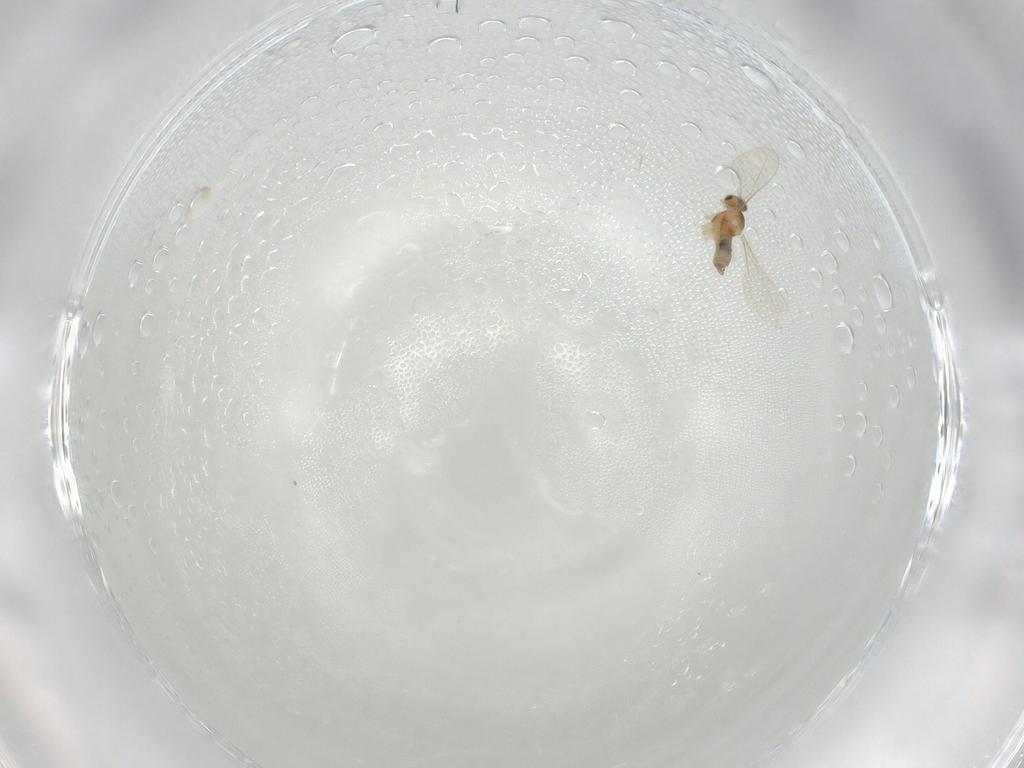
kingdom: Animalia
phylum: Arthropoda
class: Insecta
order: Diptera
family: Cecidomyiidae
